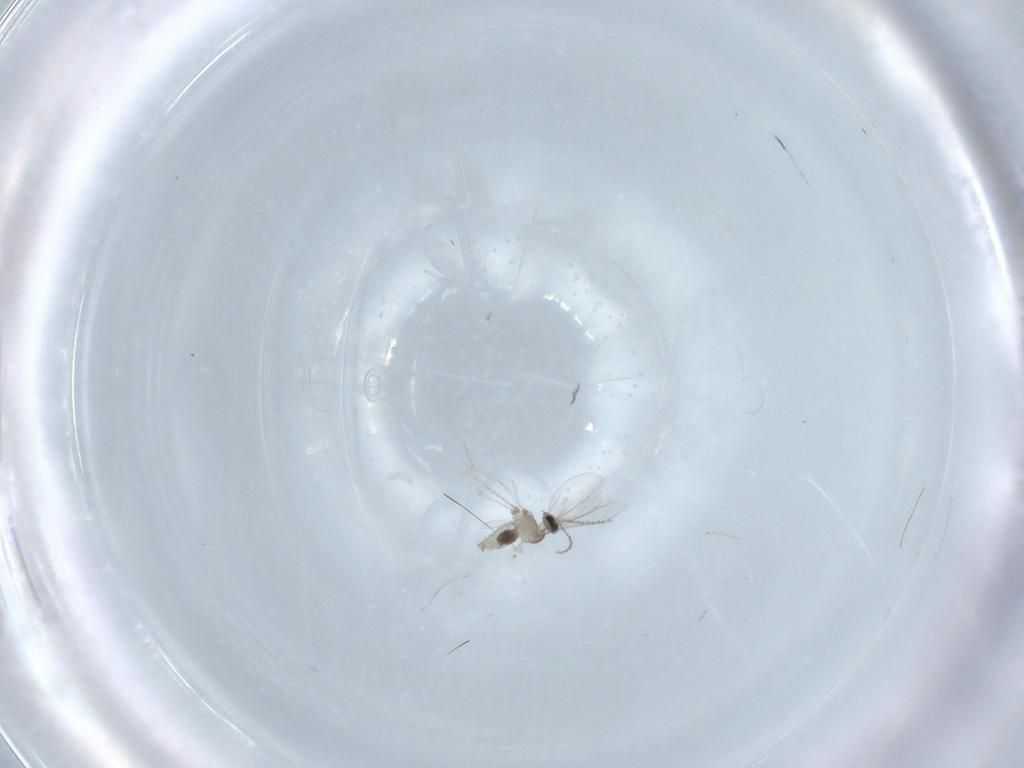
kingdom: Animalia
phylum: Arthropoda
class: Insecta
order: Diptera
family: Cecidomyiidae
